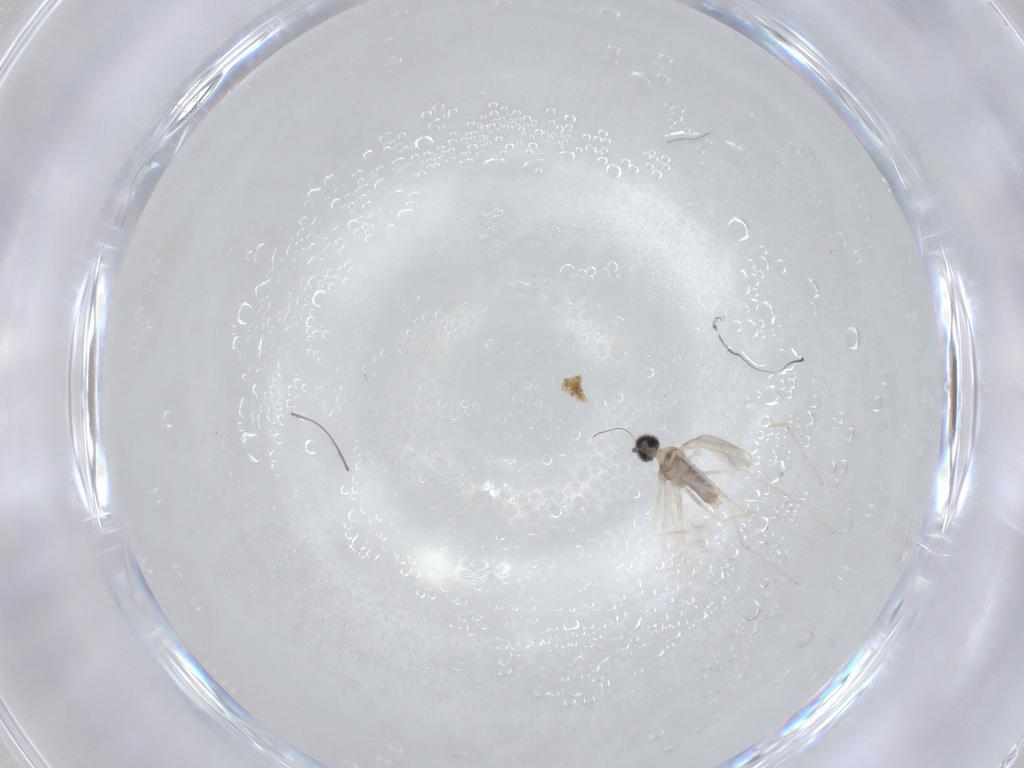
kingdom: Animalia
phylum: Arthropoda
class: Insecta
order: Diptera
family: Cecidomyiidae
